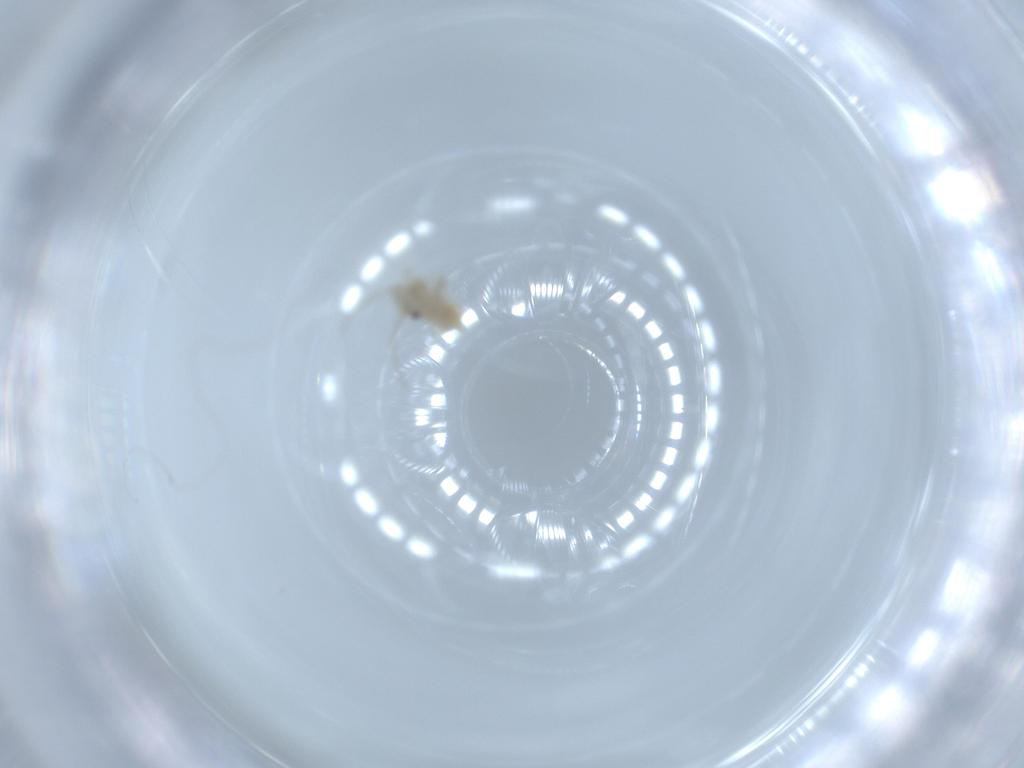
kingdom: Animalia
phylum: Arthropoda
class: Insecta
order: Psocodea
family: Caeciliusidae
